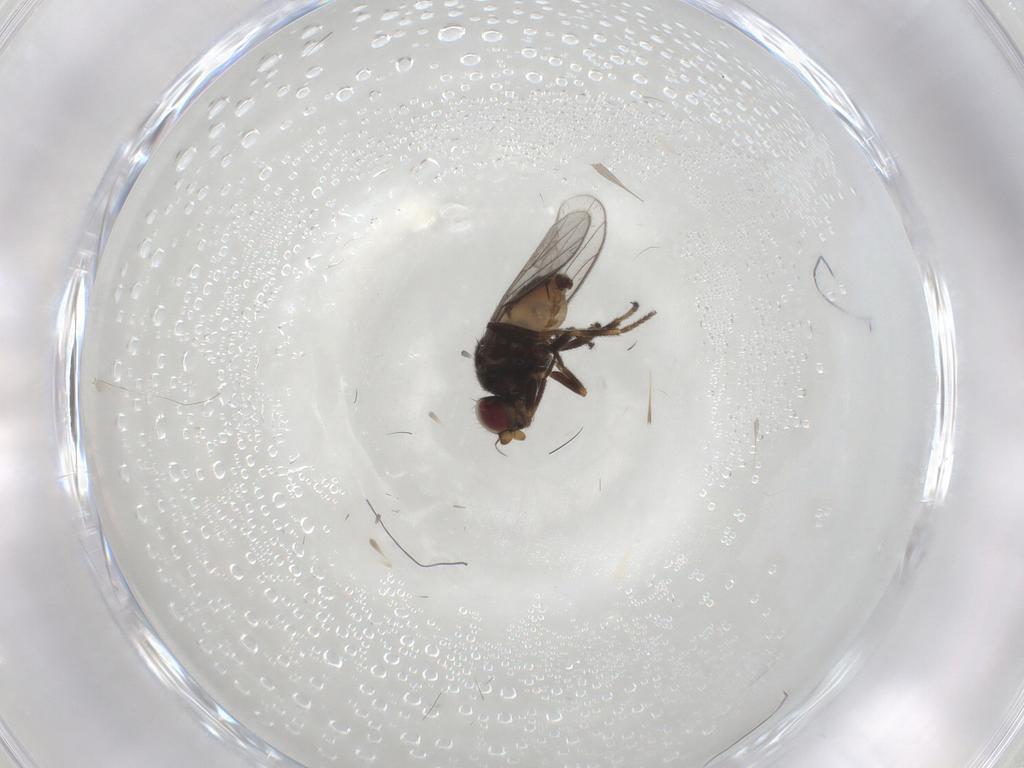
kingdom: Animalia
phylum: Arthropoda
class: Insecta
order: Diptera
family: Chloropidae
